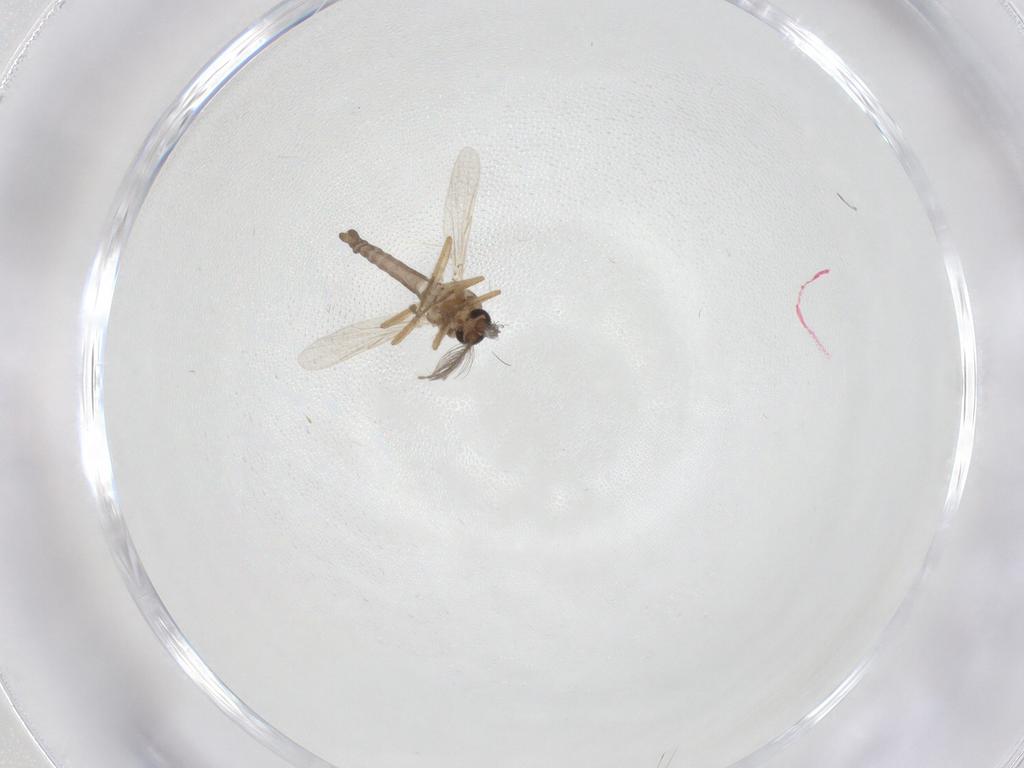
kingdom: Animalia
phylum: Arthropoda
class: Insecta
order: Diptera
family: Ceratopogonidae
